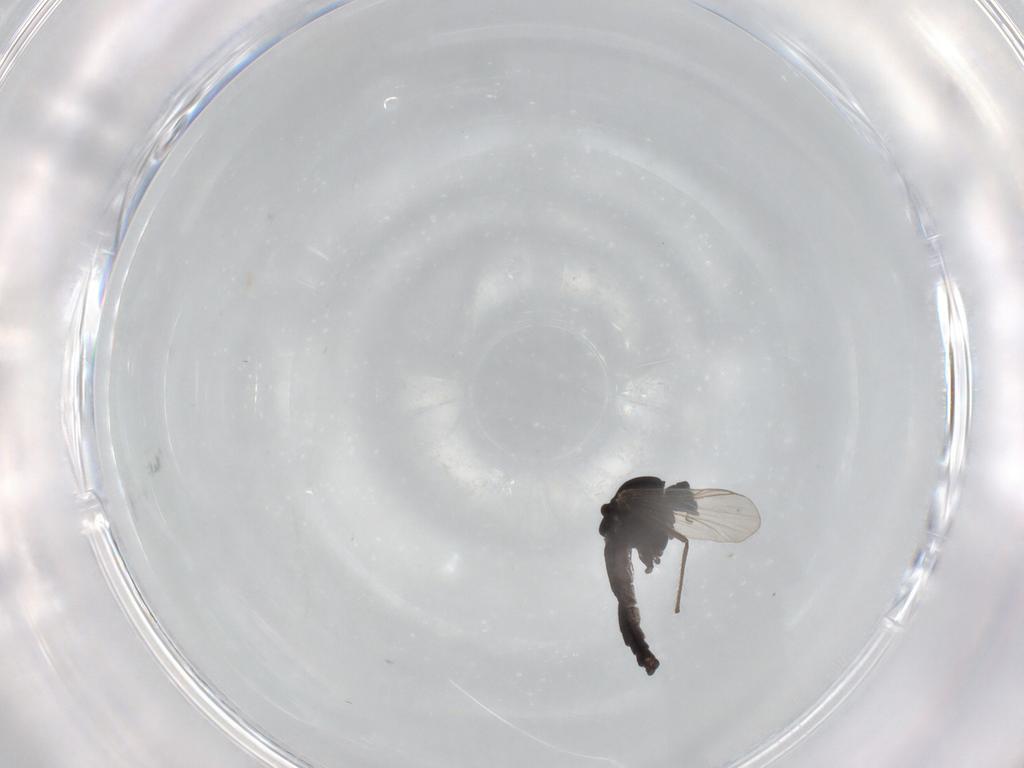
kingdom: Animalia
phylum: Arthropoda
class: Insecta
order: Diptera
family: Chironomidae
